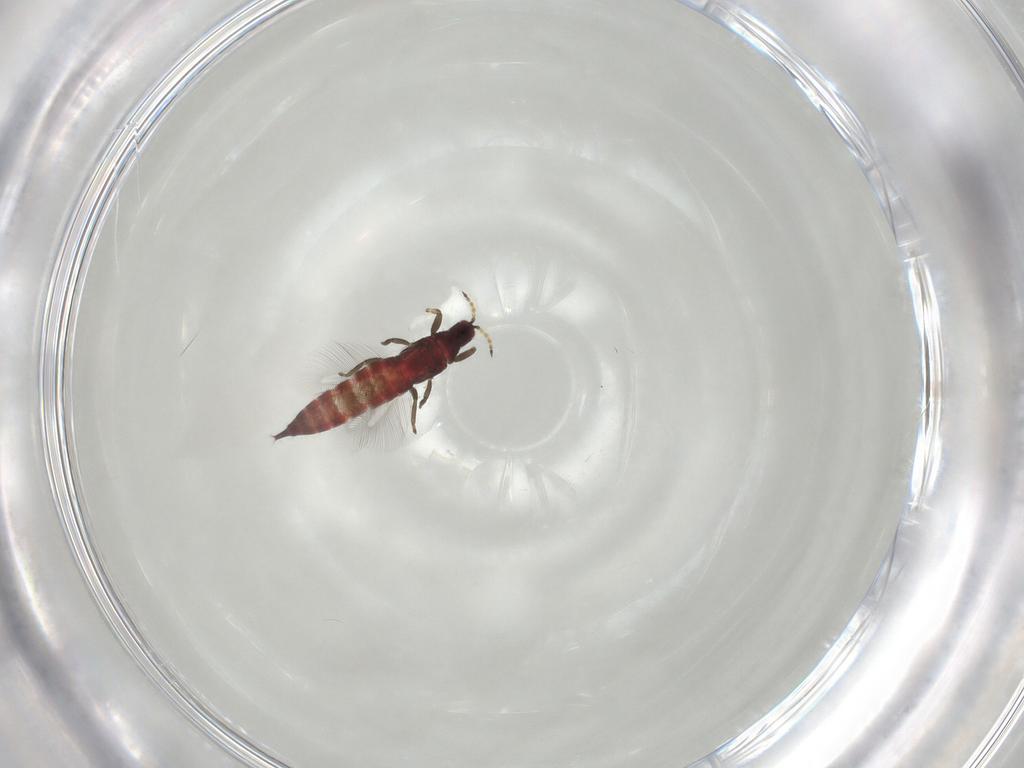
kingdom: Animalia
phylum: Arthropoda
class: Insecta
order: Thysanoptera
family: Phlaeothripidae
